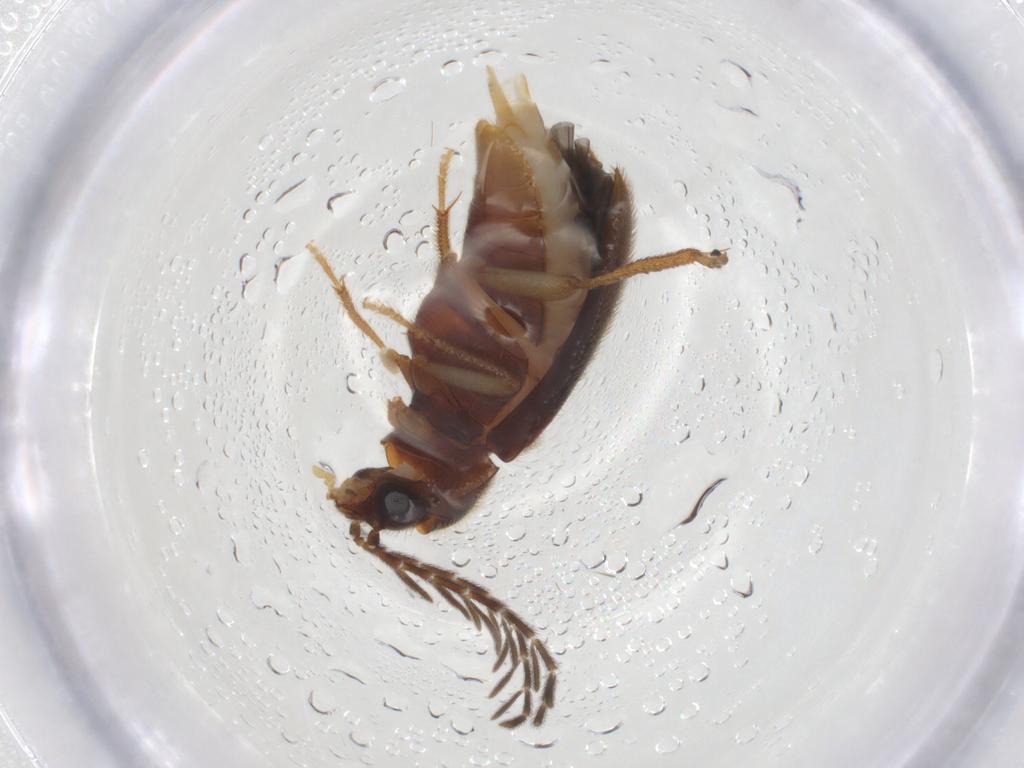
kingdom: Animalia
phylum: Arthropoda
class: Insecta
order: Coleoptera
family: Ptilodactylidae
